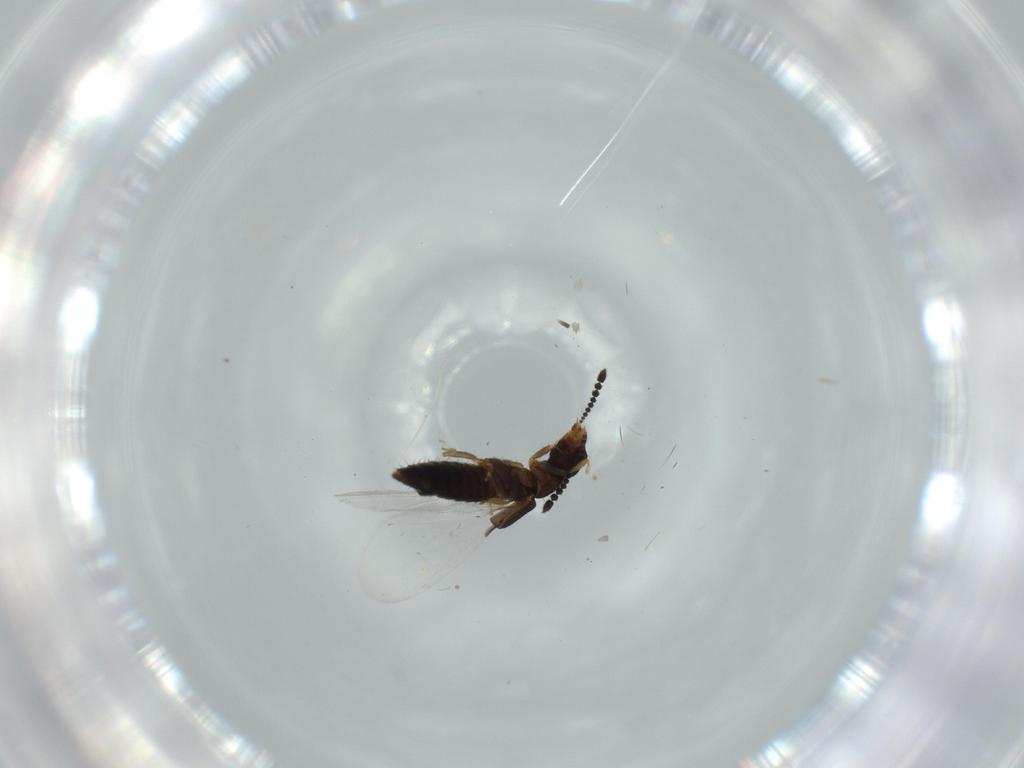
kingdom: Animalia
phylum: Arthropoda
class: Insecta
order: Coleoptera
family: Staphylinidae
